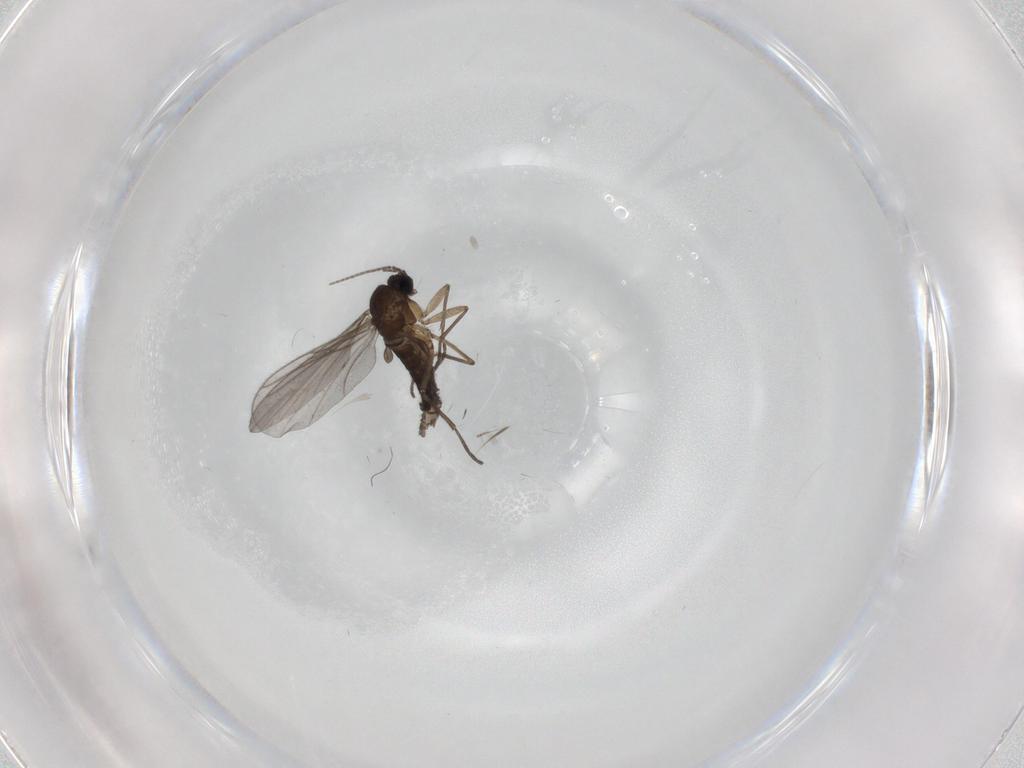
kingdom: Animalia
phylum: Arthropoda
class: Insecta
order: Diptera
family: Sciaridae
